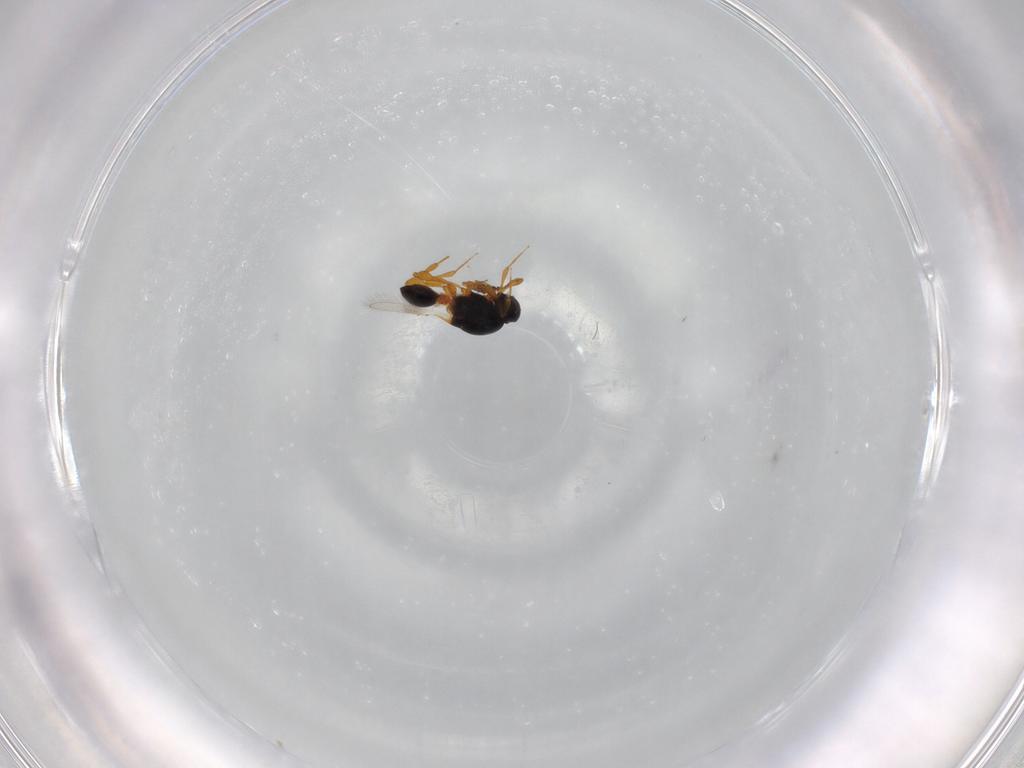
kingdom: Animalia
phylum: Arthropoda
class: Insecta
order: Hymenoptera
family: Platygastridae
